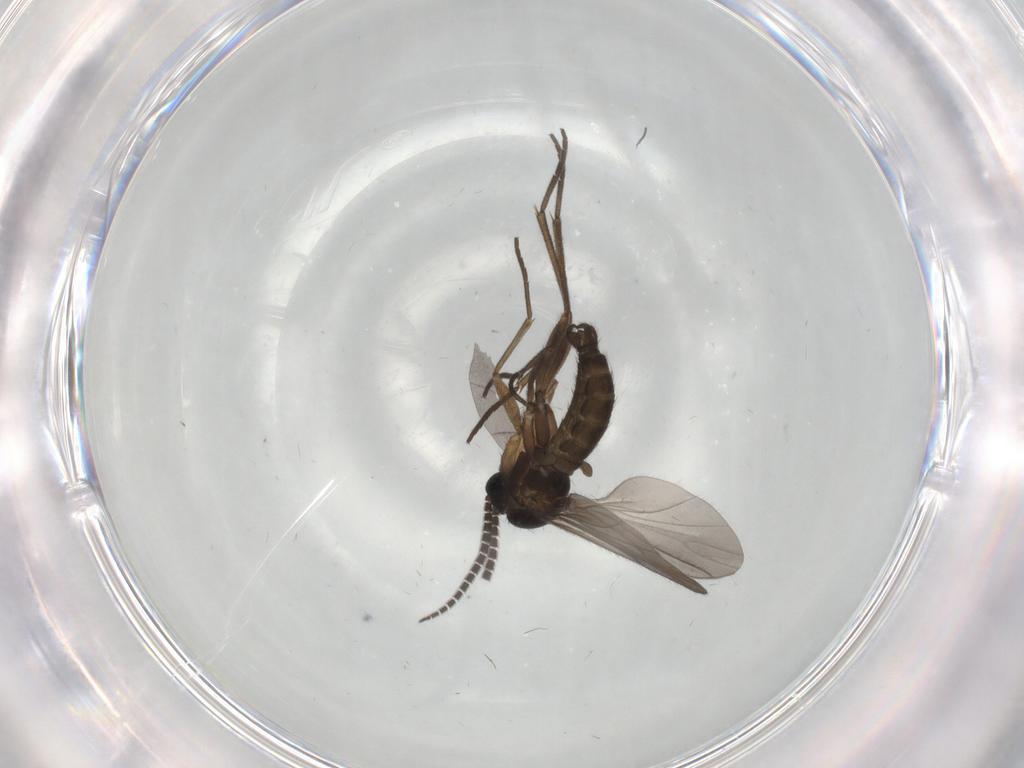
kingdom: Animalia
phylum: Arthropoda
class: Insecta
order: Diptera
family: Sciaridae
